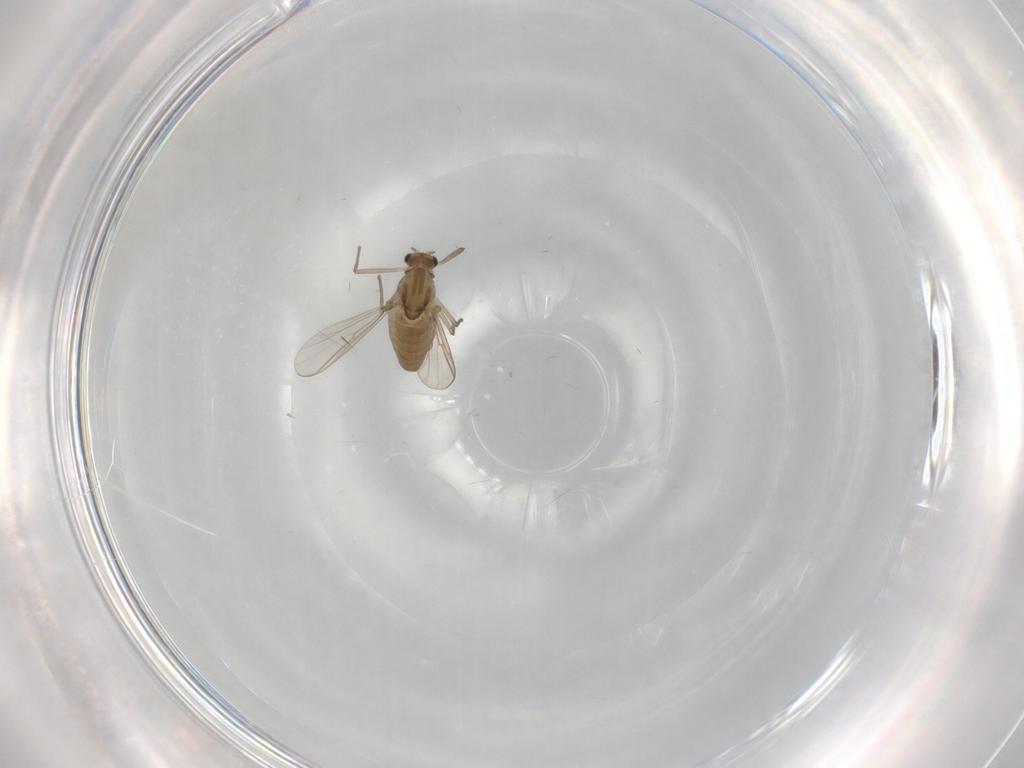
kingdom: Animalia
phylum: Arthropoda
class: Insecta
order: Diptera
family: Chironomidae
